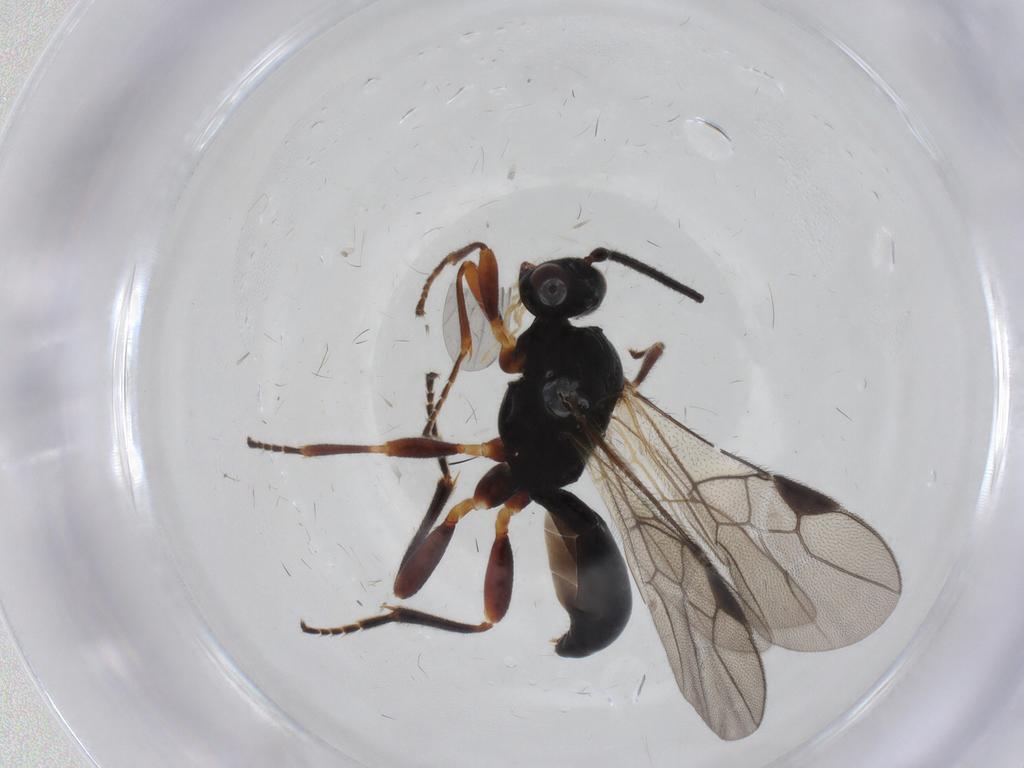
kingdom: Animalia
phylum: Arthropoda
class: Insecta
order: Hymenoptera
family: Braconidae
